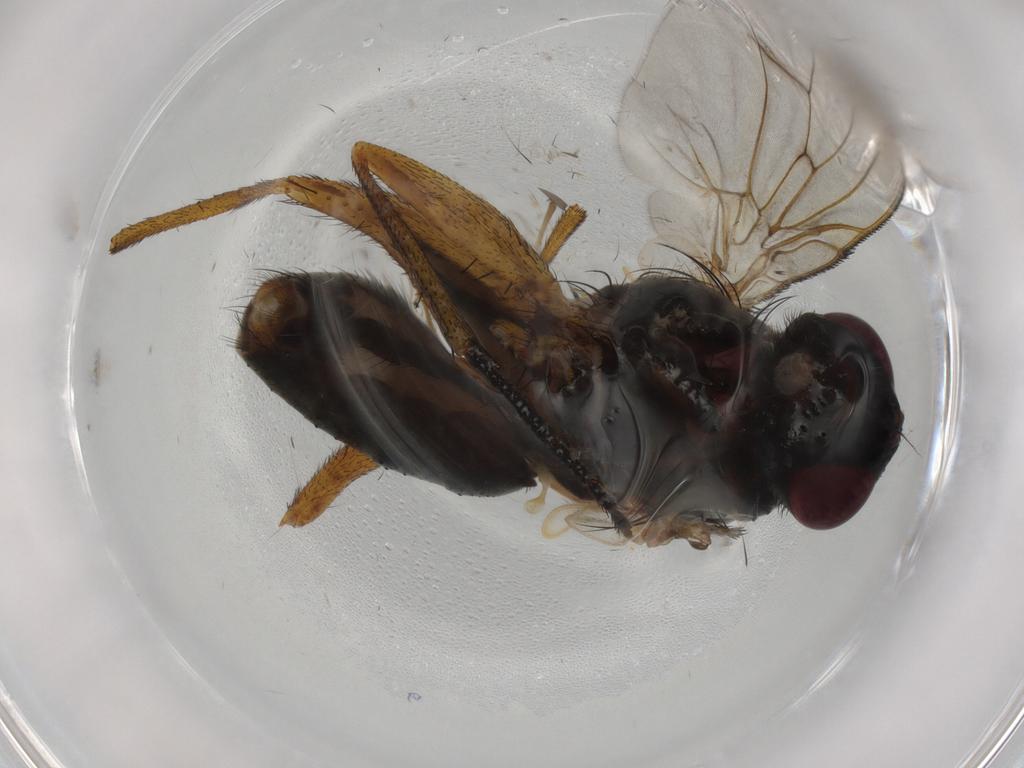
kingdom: Animalia
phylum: Arthropoda
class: Insecta
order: Diptera
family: Muscidae
